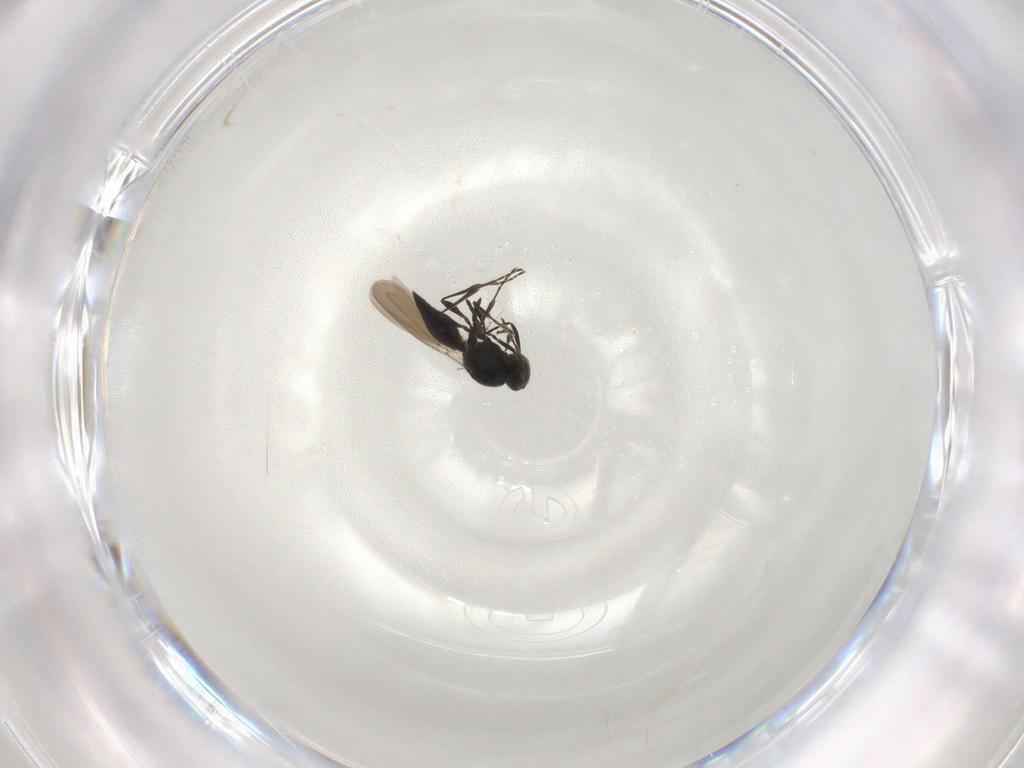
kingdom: Animalia
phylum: Arthropoda
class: Insecta
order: Hymenoptera
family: Platygastridae
